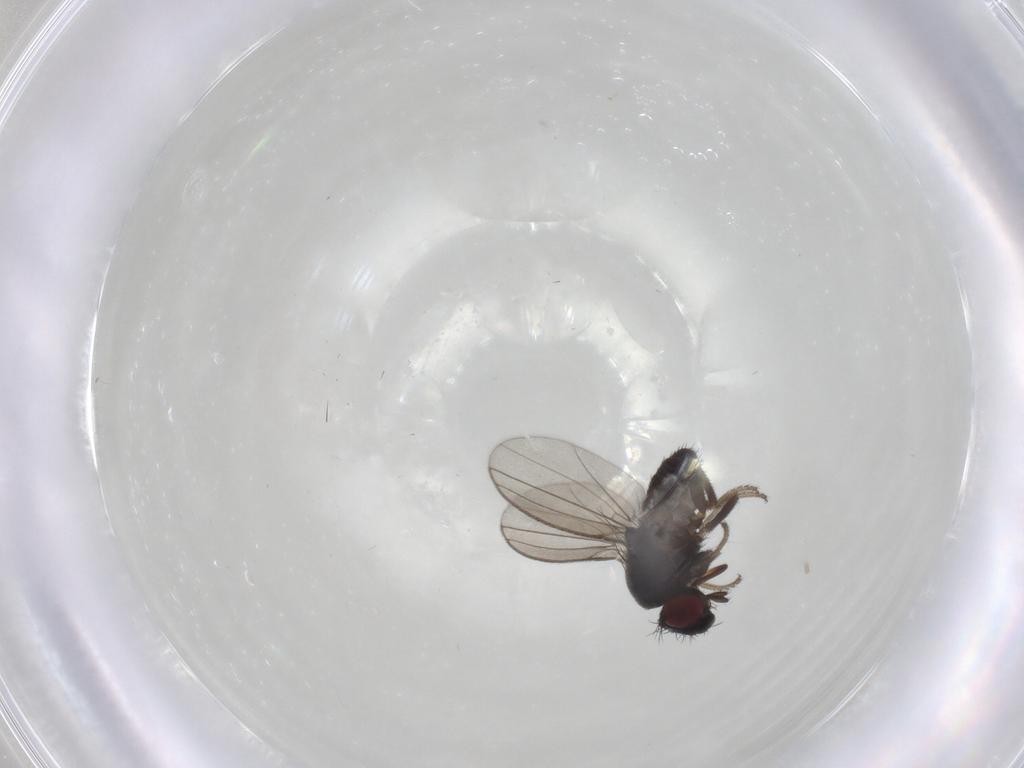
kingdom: Animalia
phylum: Arthropoda
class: Insecta
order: Diptera
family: Milichiidae
